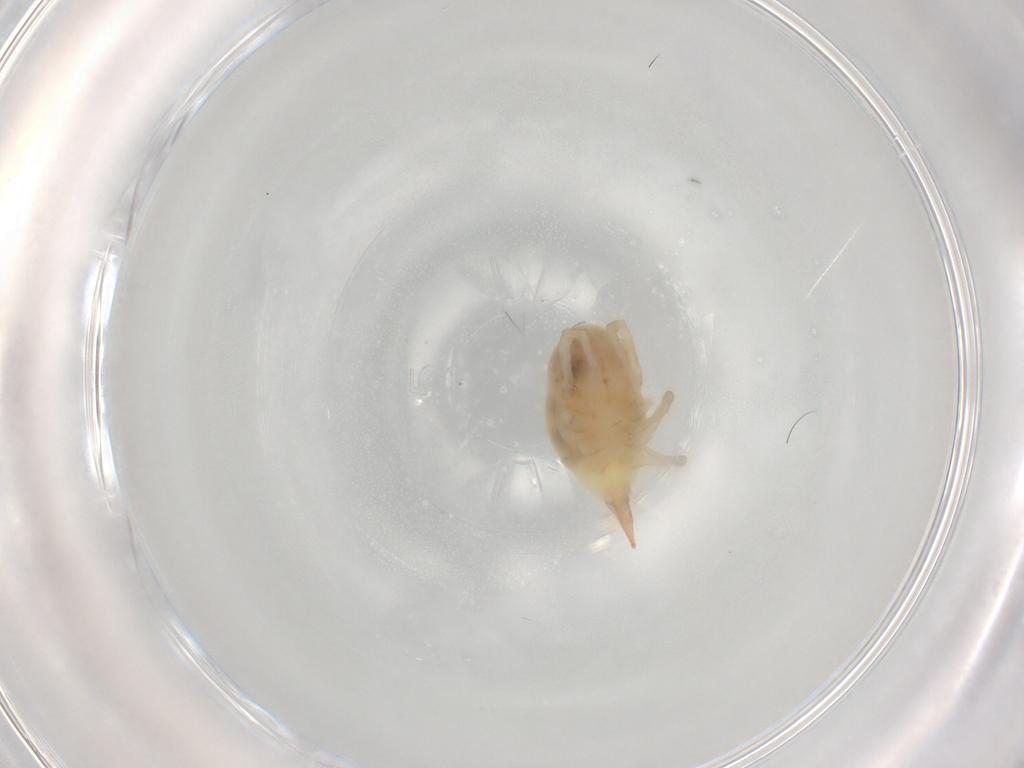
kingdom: Animalia
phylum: Arthropoda
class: Arachnida
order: Trombidiformes
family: Bdellidae
